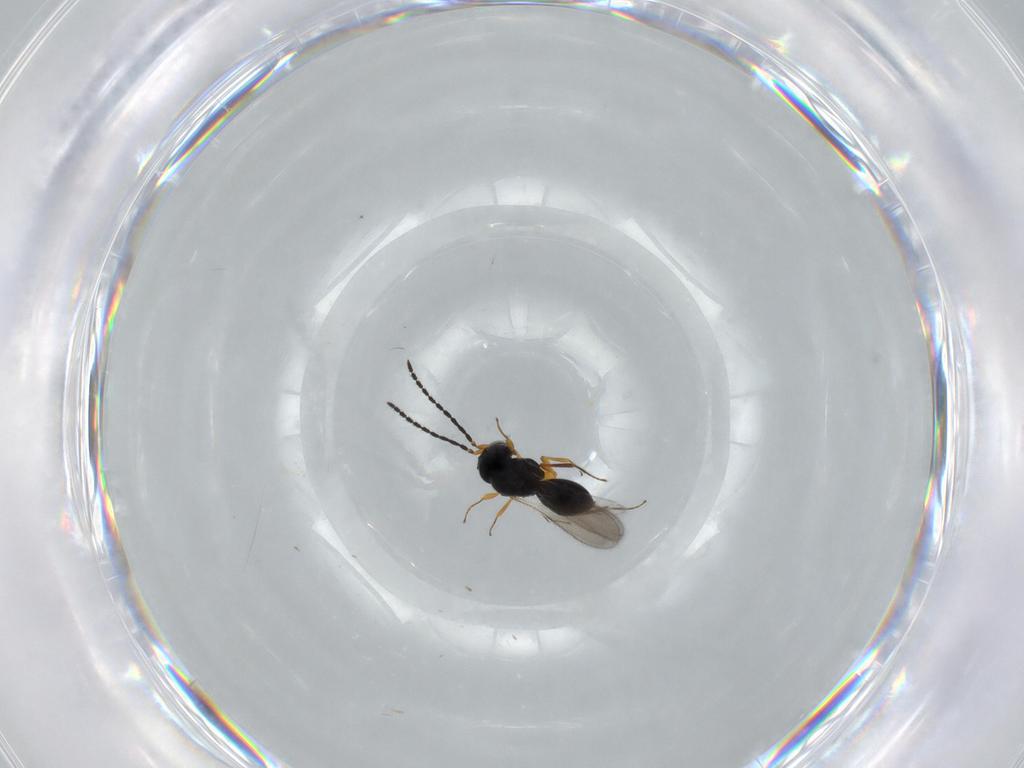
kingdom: Animalia
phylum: Arthropoda
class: Insecta
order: Hymenoptera
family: Scelionidae
